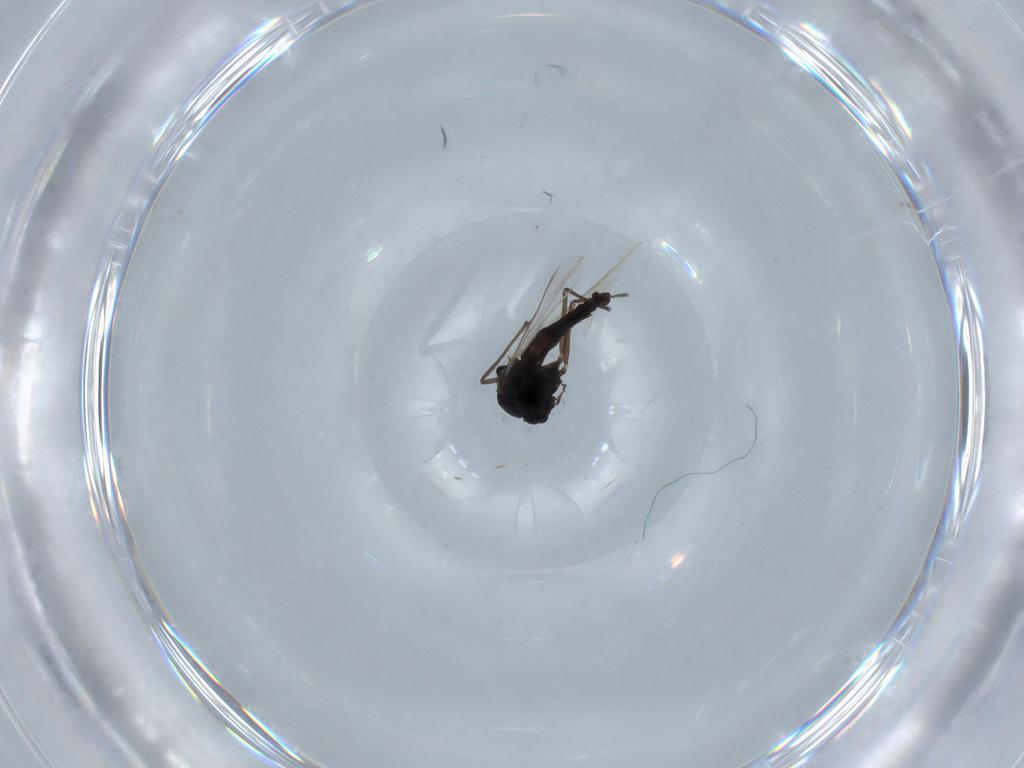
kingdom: Animalia
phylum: Arthropoda
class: Insecta
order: Diptera
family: Chironomidae
